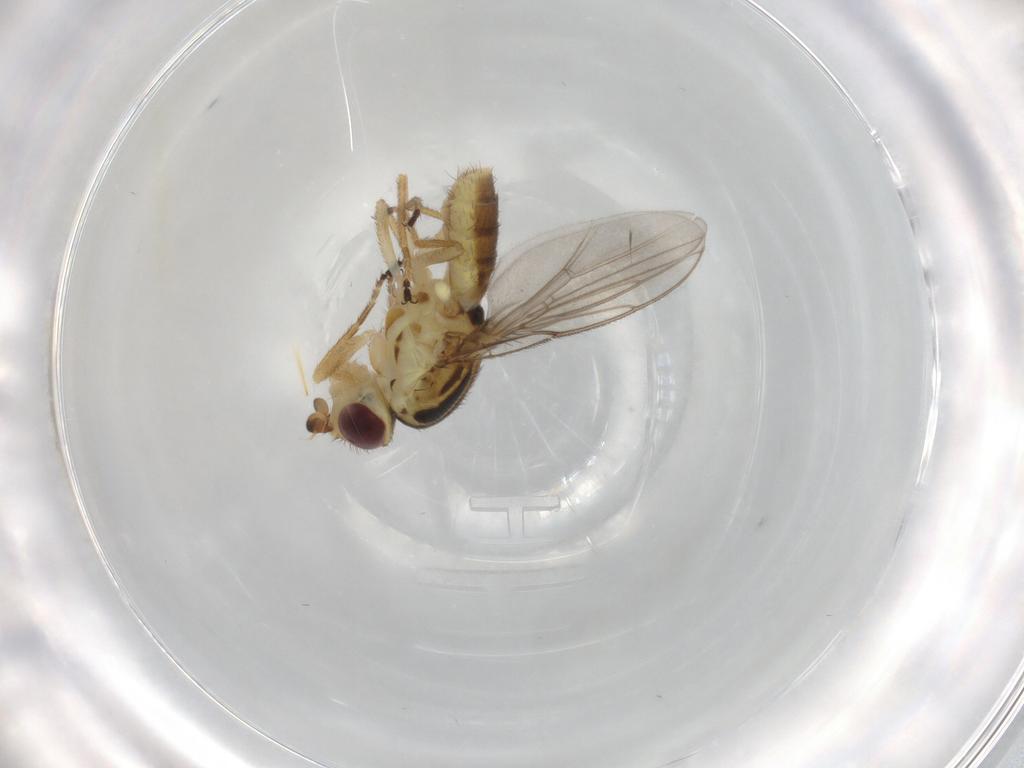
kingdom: Animalia
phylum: Arthropoda
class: Insecta
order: Diptera
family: Chloropidae
